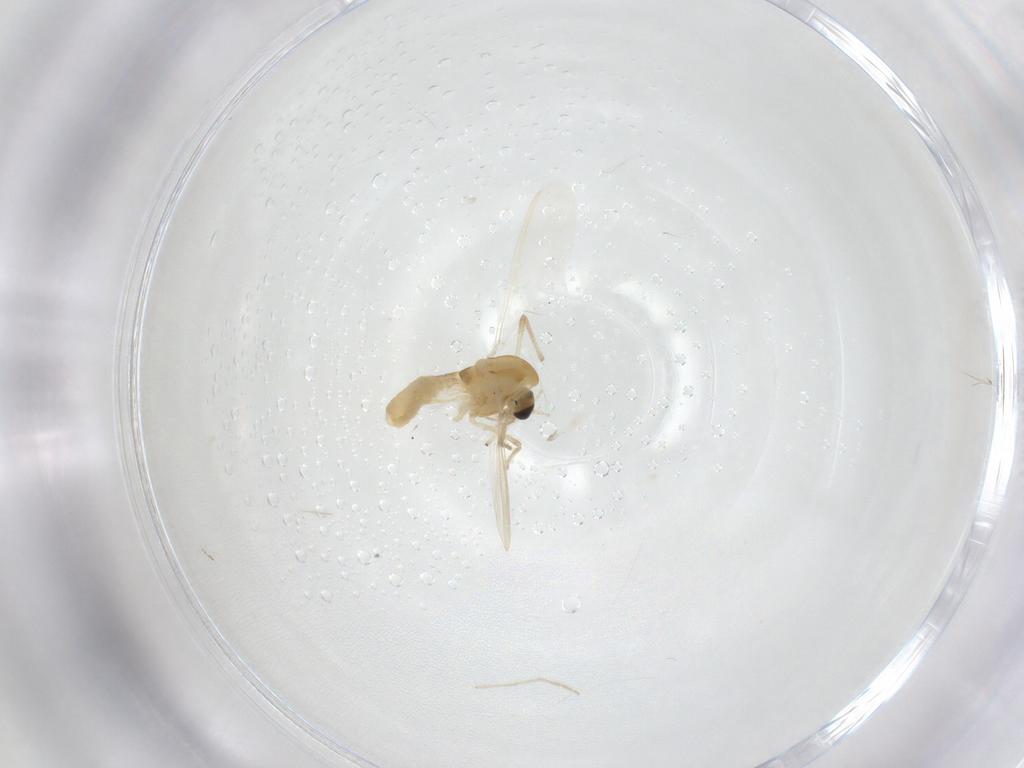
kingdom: Animalia
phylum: Arthropoda
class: Insecta
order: Diptera
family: Chironomidae
